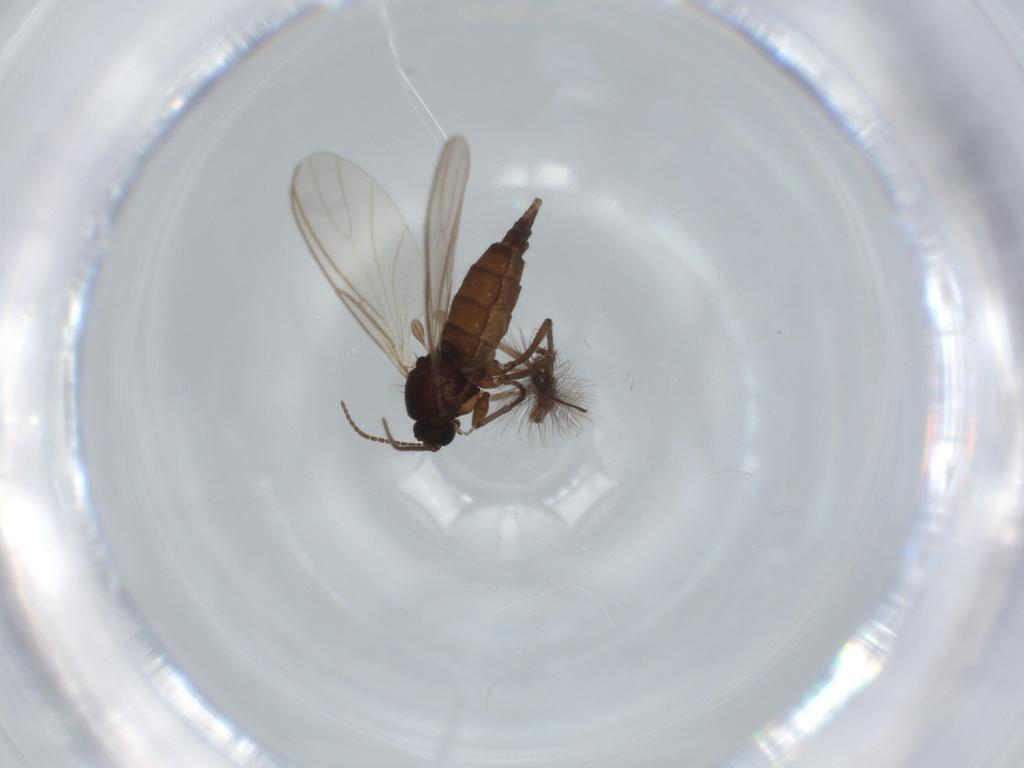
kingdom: Animalia
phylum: Arthropoda
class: Insecta
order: Diptera
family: Sciaridae
